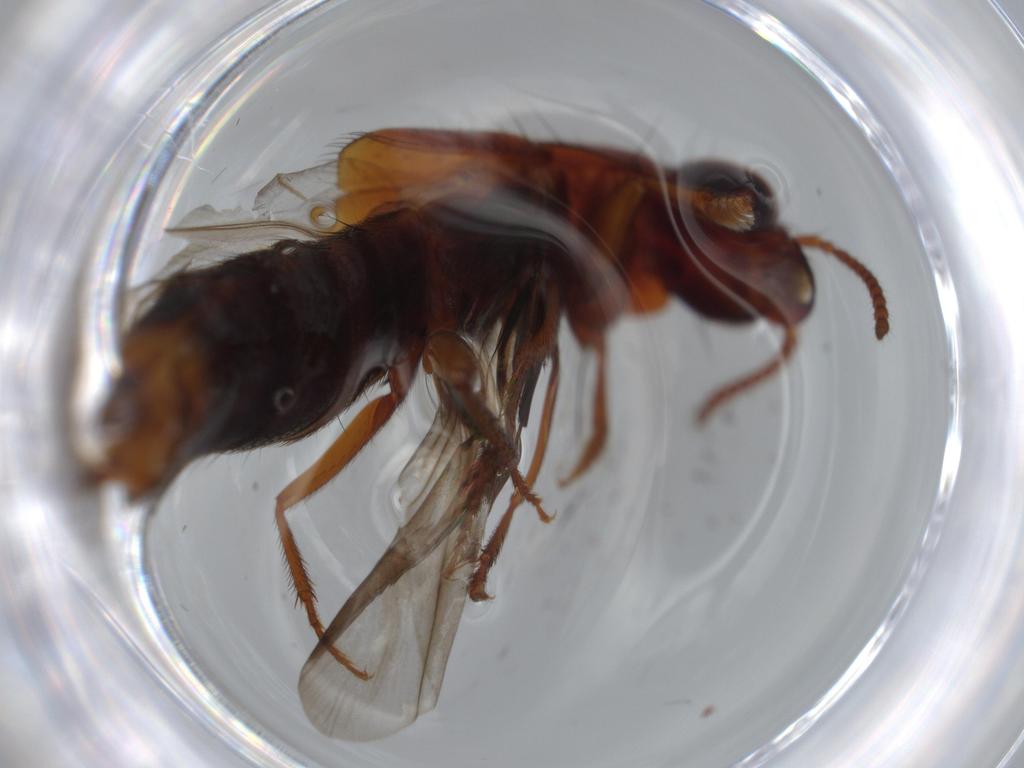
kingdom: Animalia
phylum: Arthropoda
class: Insecta
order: Coleoptera
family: Staphylinidae
